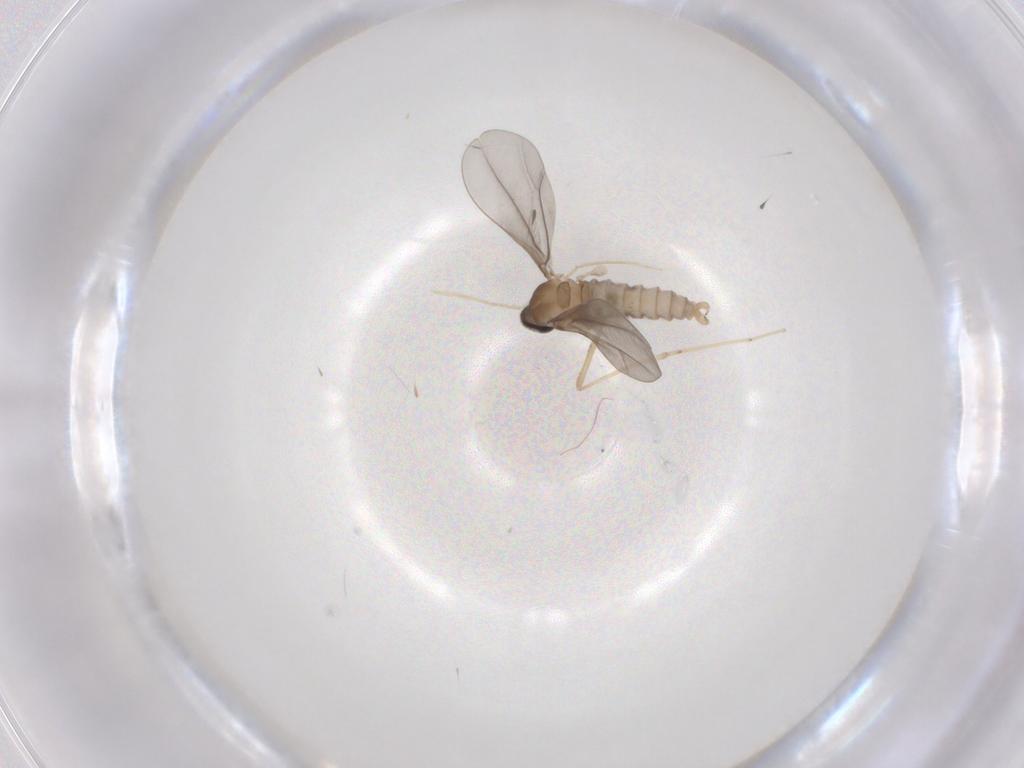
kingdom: Animalia
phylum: Arthropoda
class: Insecta
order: Diptera
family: Cecidomyiidae
